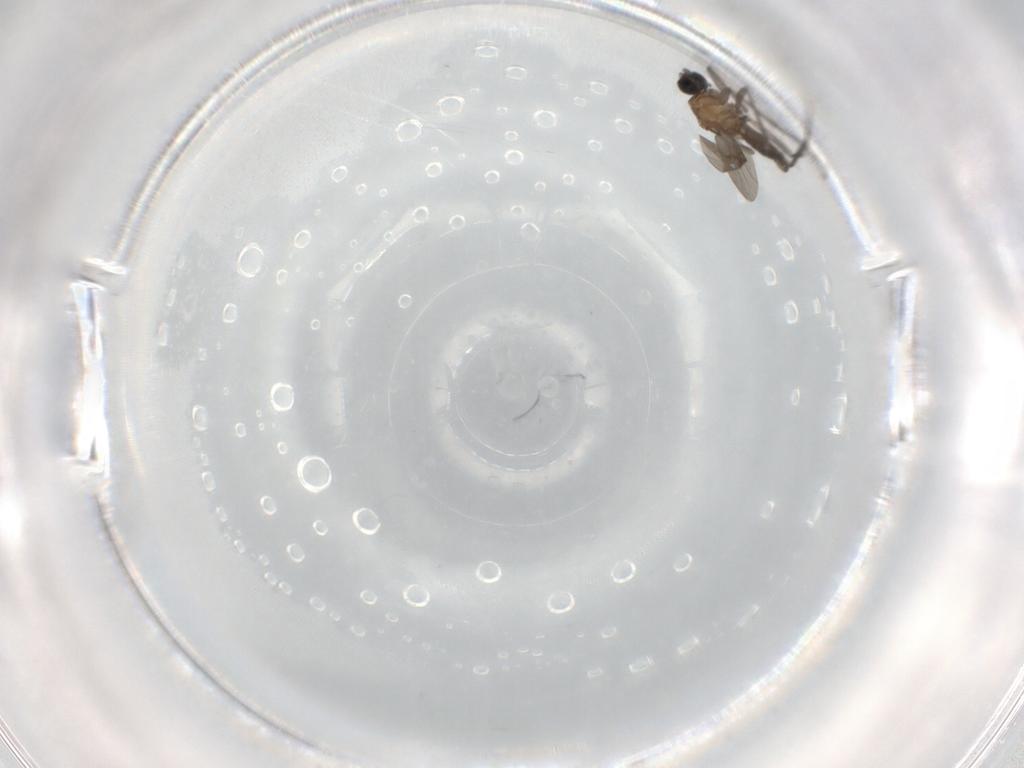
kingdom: Animalia
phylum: Arthropoda
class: Insecta
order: Diptera
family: Sciaridae
